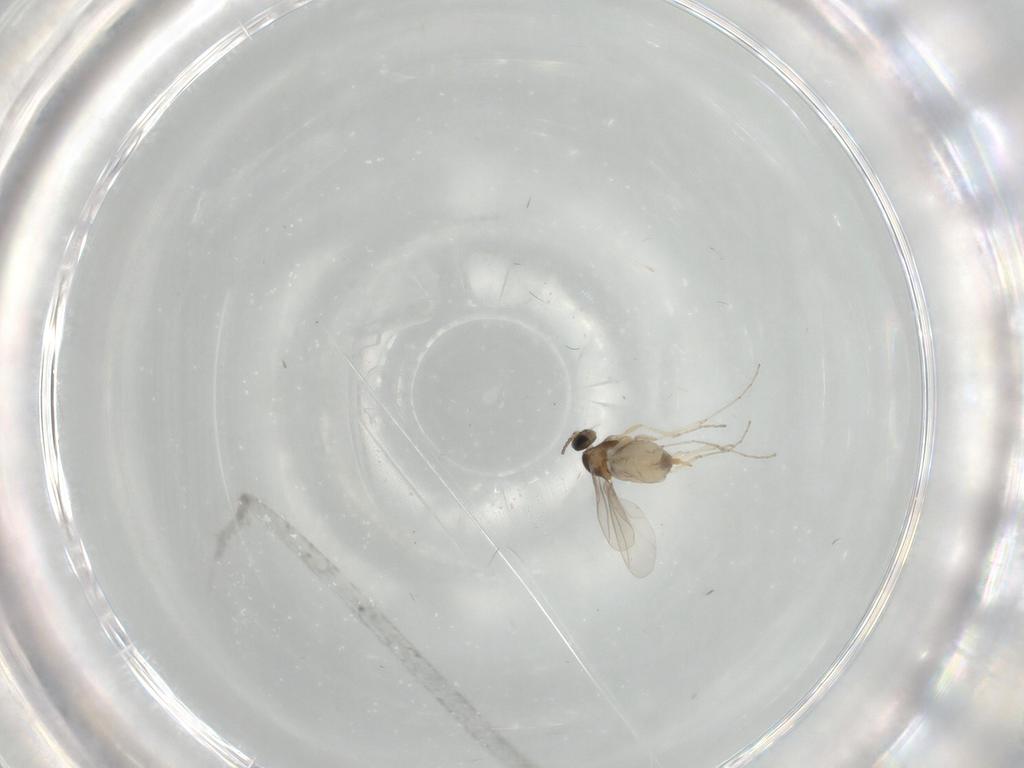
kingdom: Animalia
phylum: Arthropoda
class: Insecta
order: Diptera
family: Cecidomyiidae
